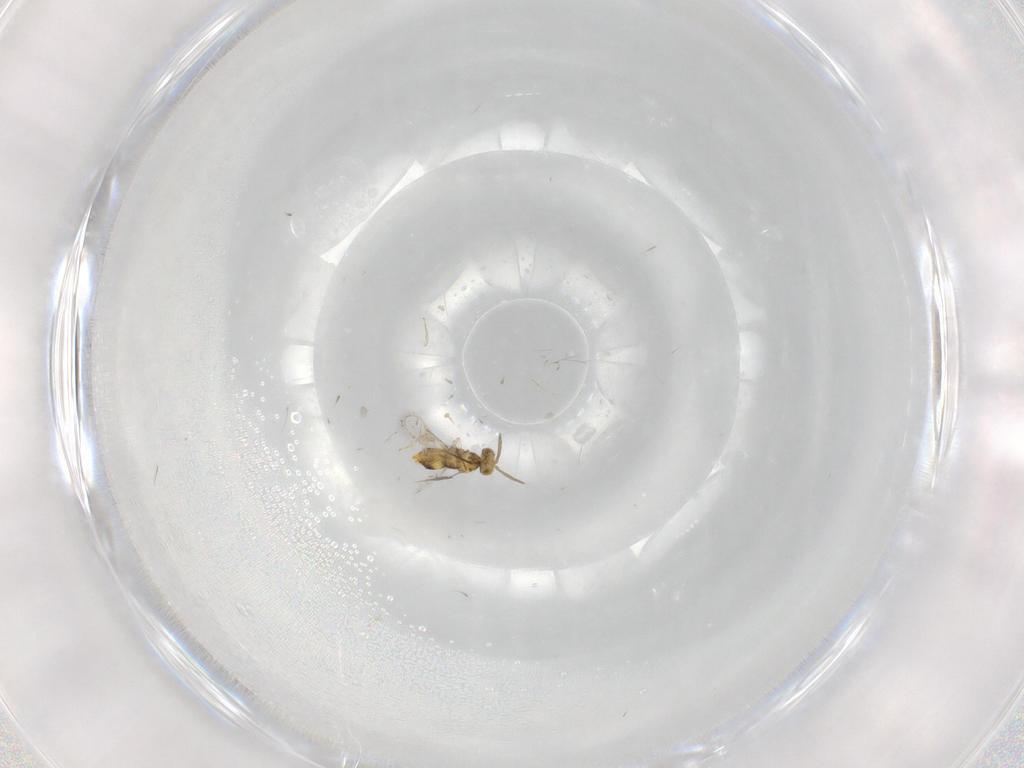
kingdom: Animalia
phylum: Arthropoda
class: Insecta
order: Hymenoptera
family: Aphelinidae
